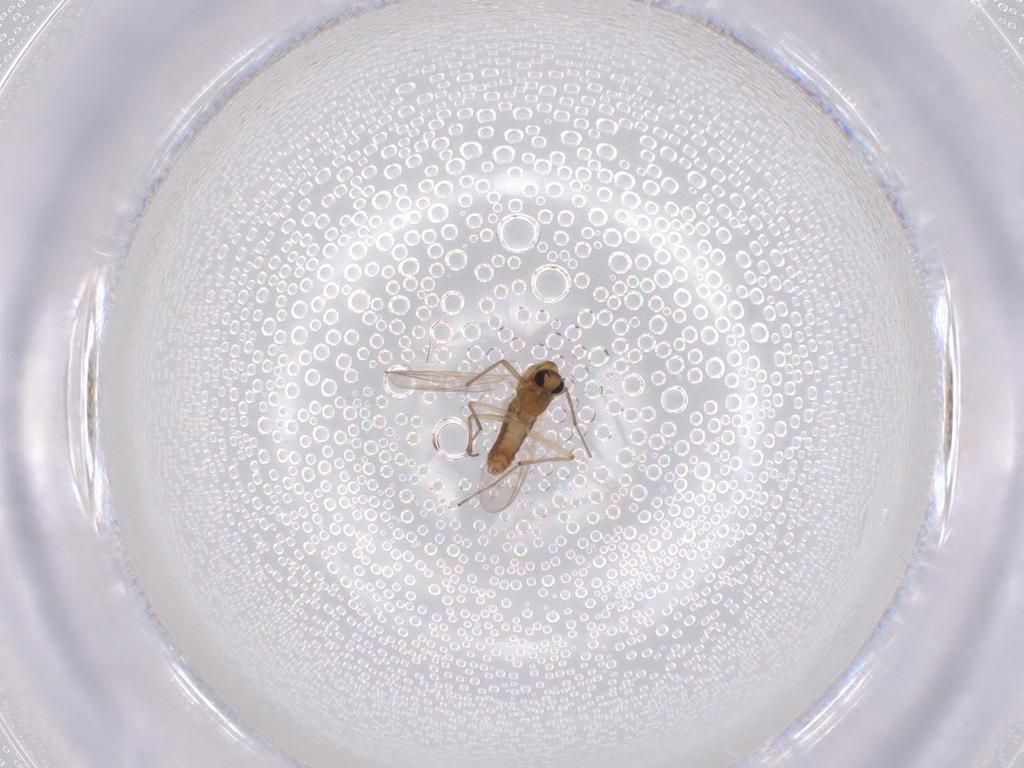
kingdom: Animalia
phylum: Arthropoda
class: Insecta
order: Diptera
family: Chironomidae
